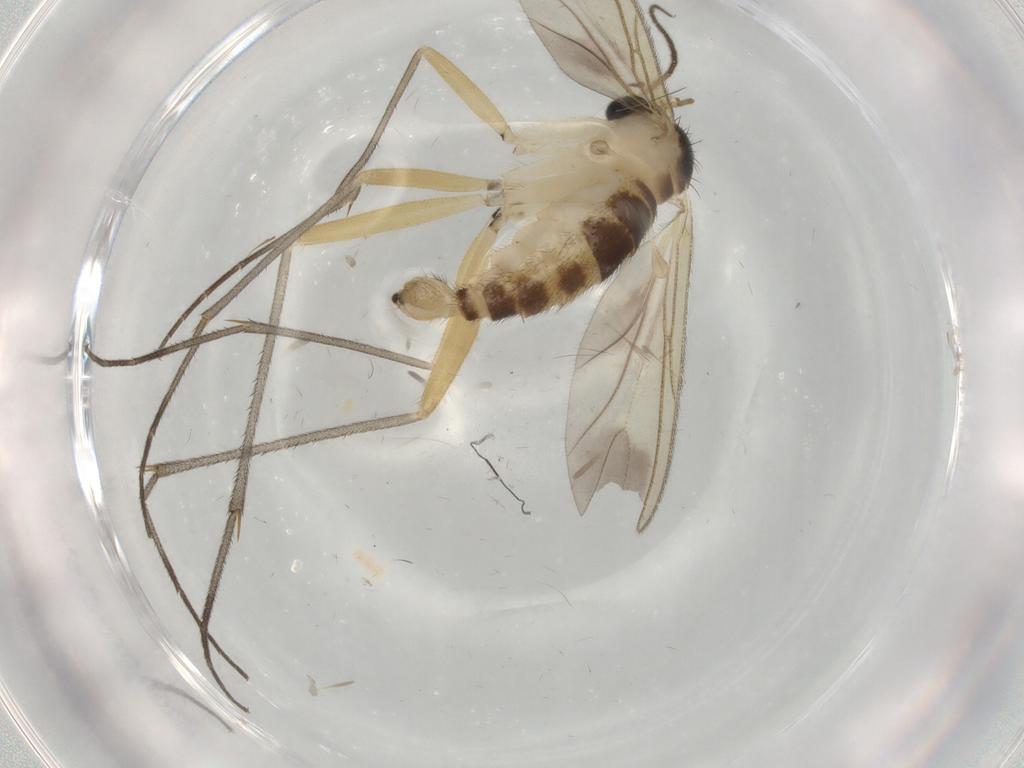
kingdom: Animalia
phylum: Arthropoda
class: Insecta
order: Diptera
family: Sciaridae
